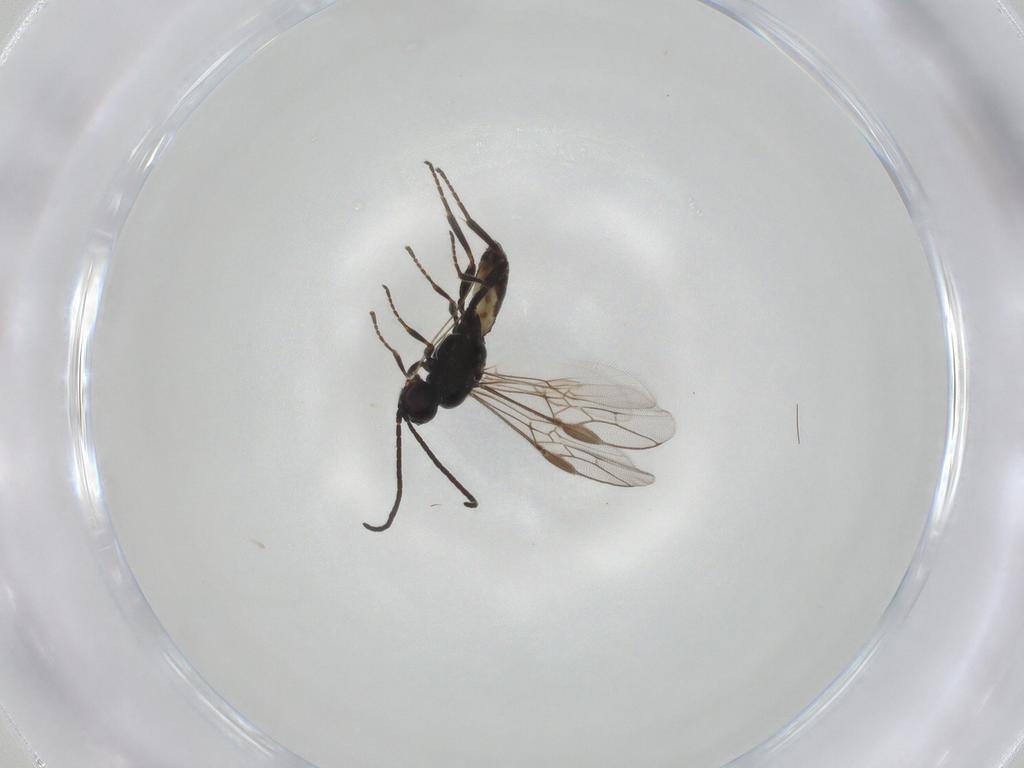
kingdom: Animalia
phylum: Arthropoda
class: Insecta
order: Hymenoptera
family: Braconidae
